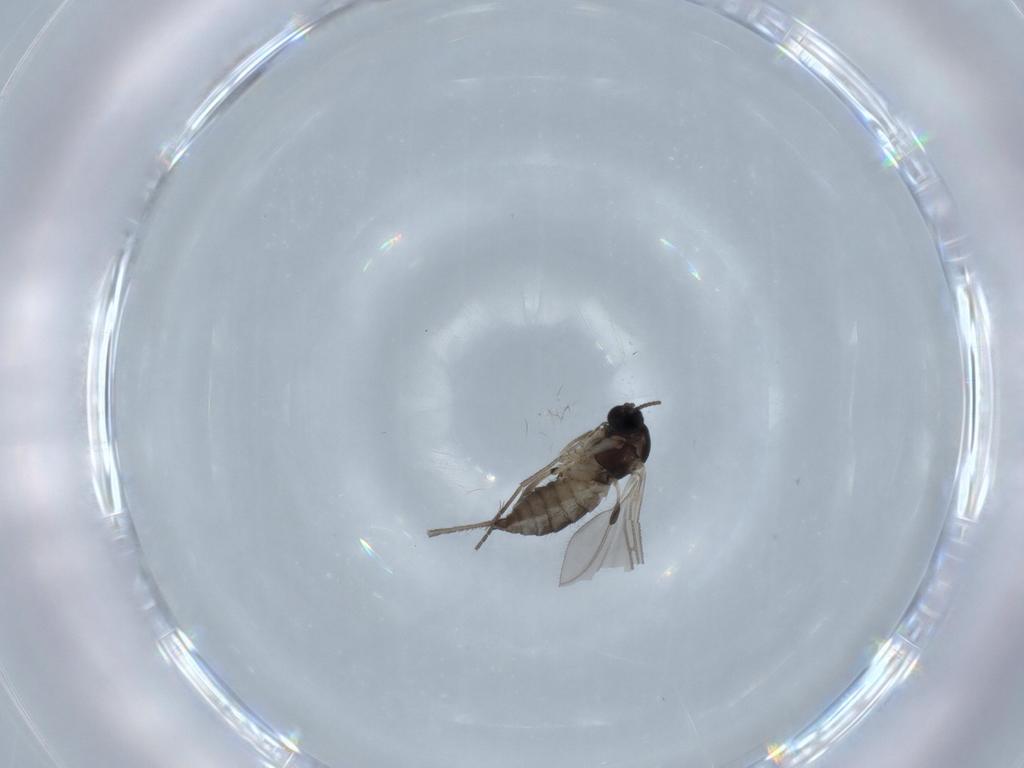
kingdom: Animalia
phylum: Arthropoda
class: Insecta
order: Diptera
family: Sciaridae
